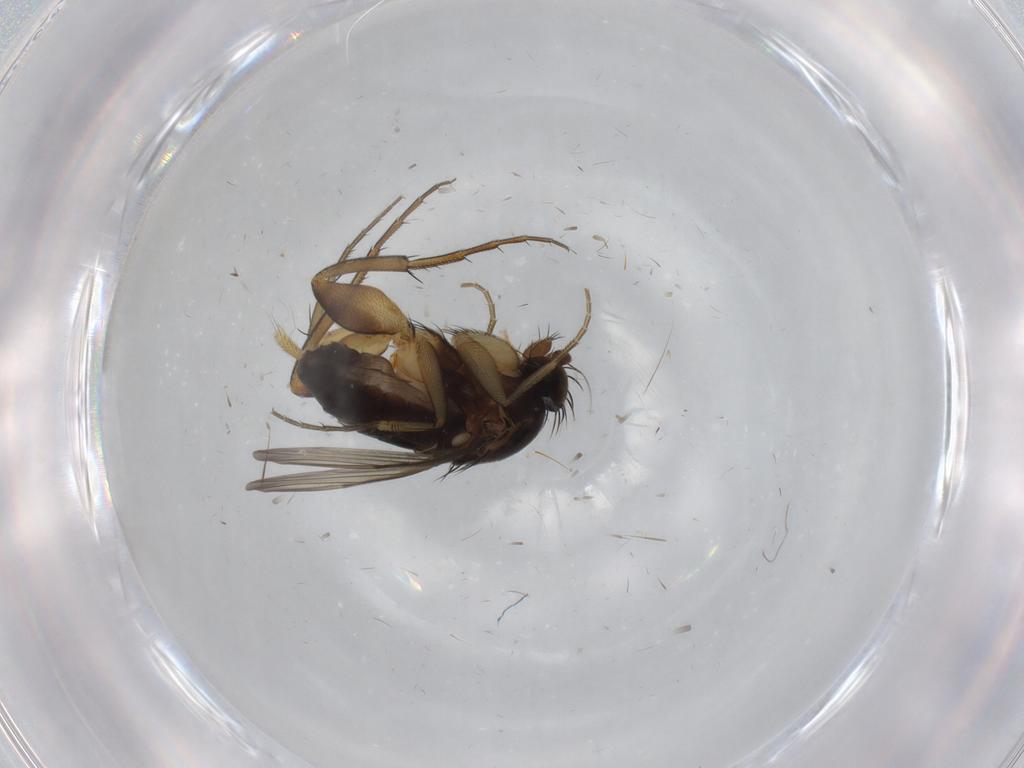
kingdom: Animalia
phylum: Arthropoda
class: Insecta
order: Diptera
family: Phoridae
